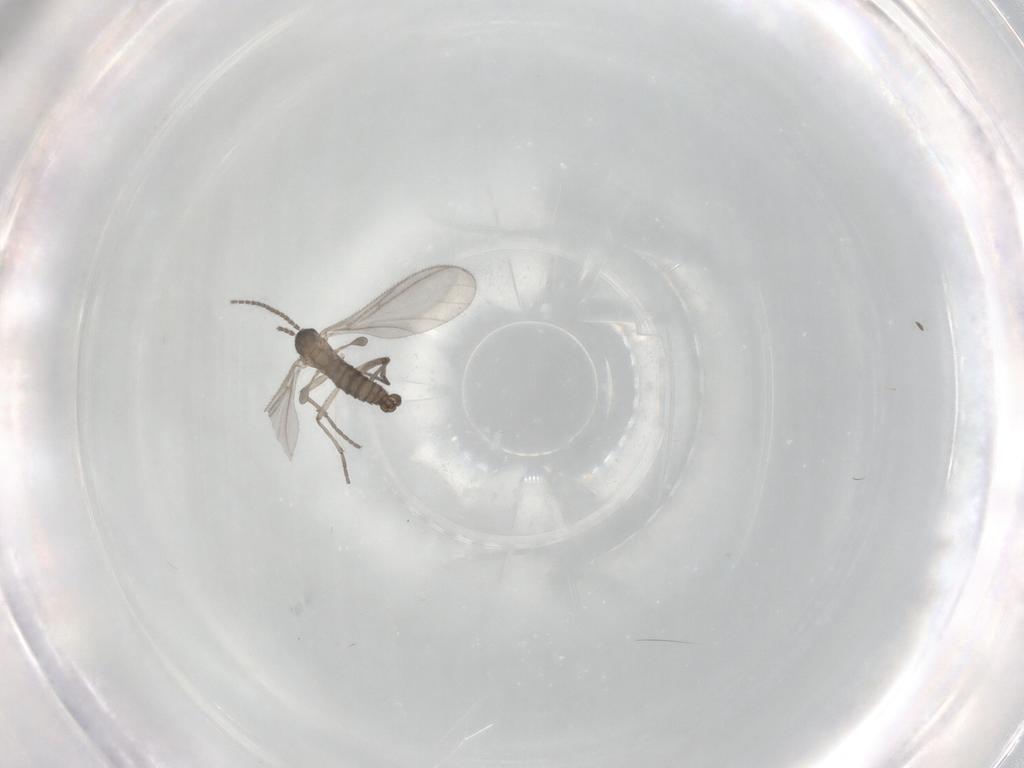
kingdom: Animalia
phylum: Arthropoda
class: Insecta
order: Diptera
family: Sciaridae
